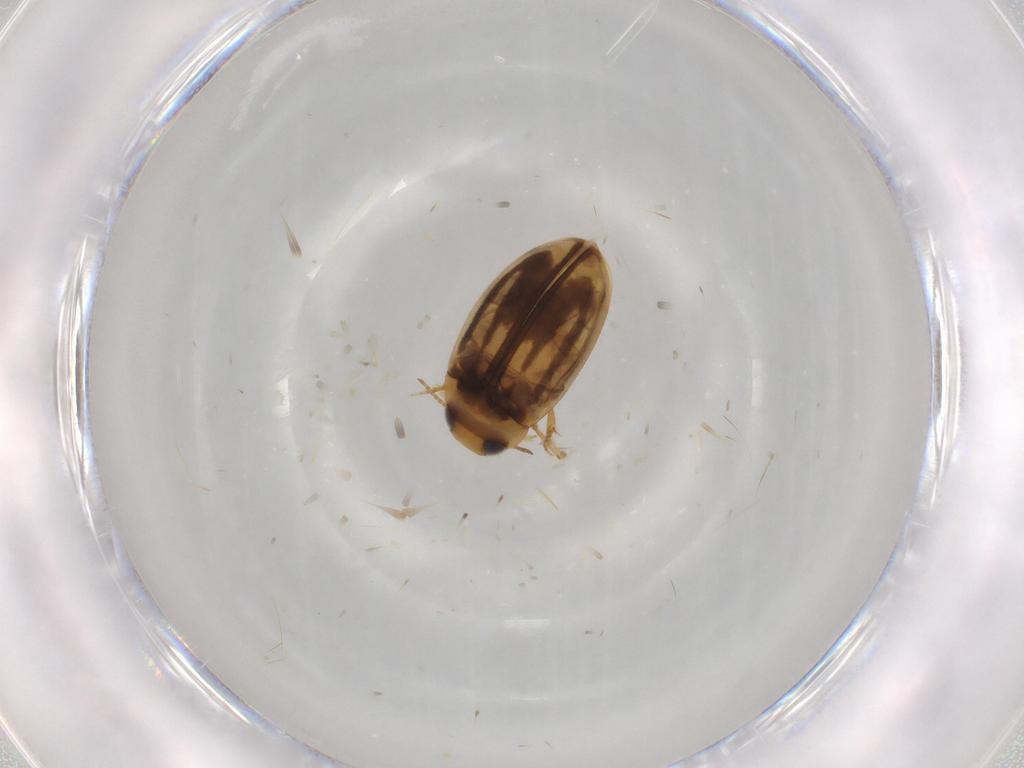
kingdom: Animalia
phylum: Arthropoda
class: Insecta
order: Coleoptera
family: Dytiscidae
